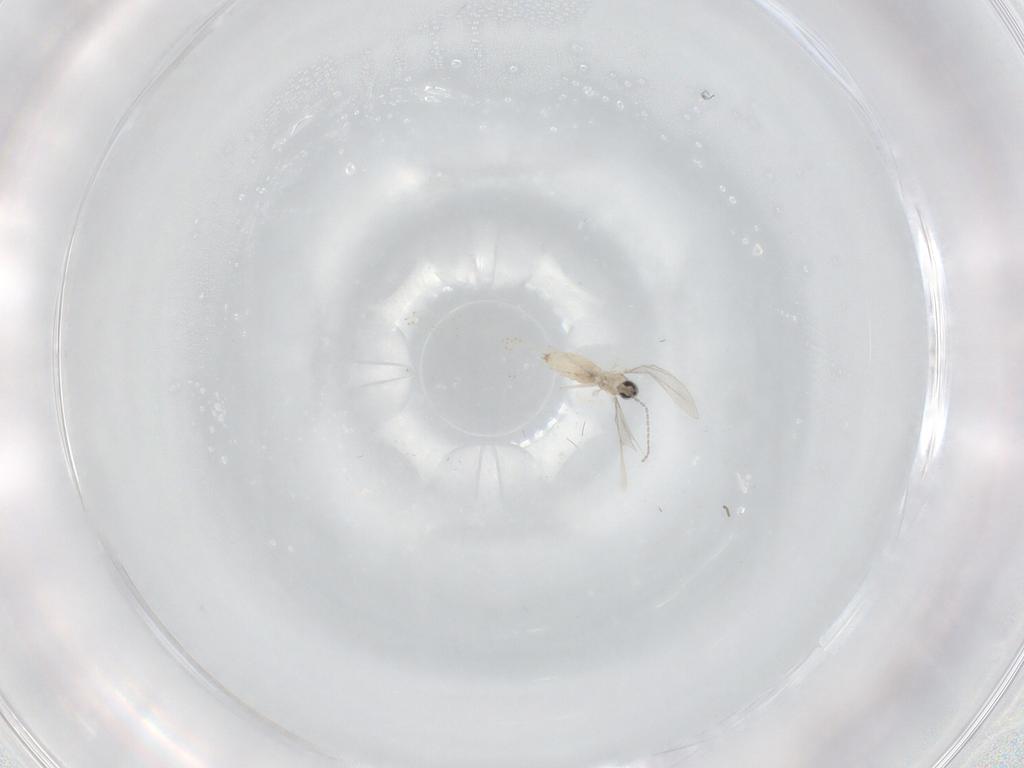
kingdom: Animalia
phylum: Arthropoda
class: Insecta
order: Diptera
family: Cecidomyiidae
